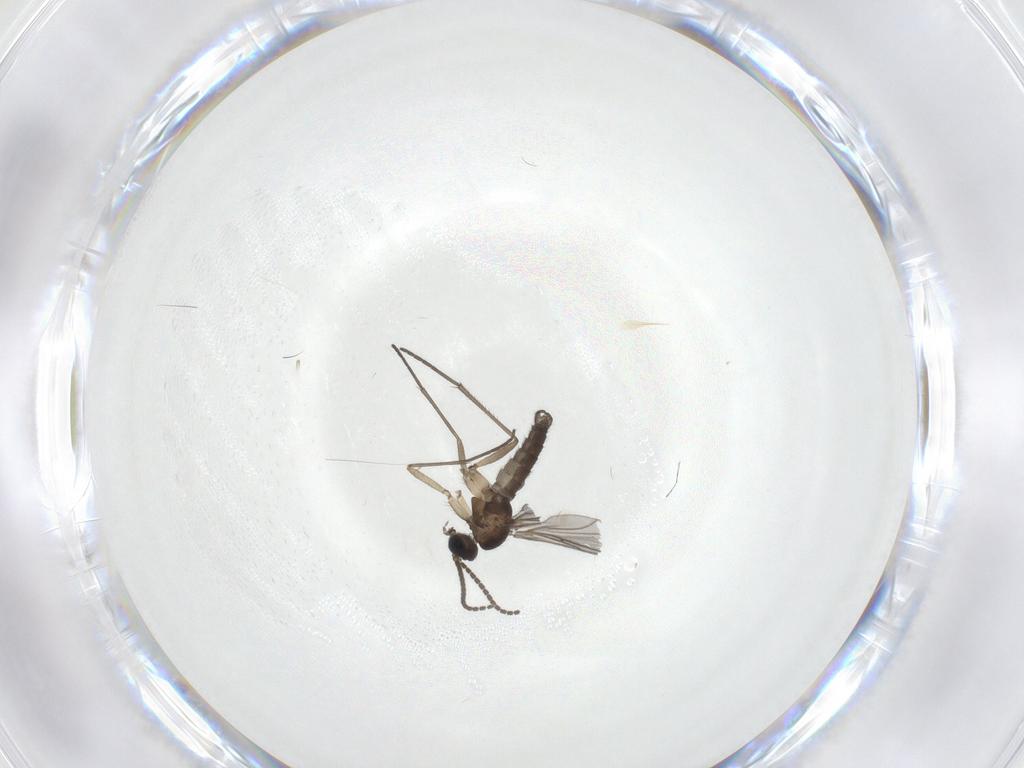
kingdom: Animalia
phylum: Arthropoda
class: Insecta
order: Diptera
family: Sciaridae
